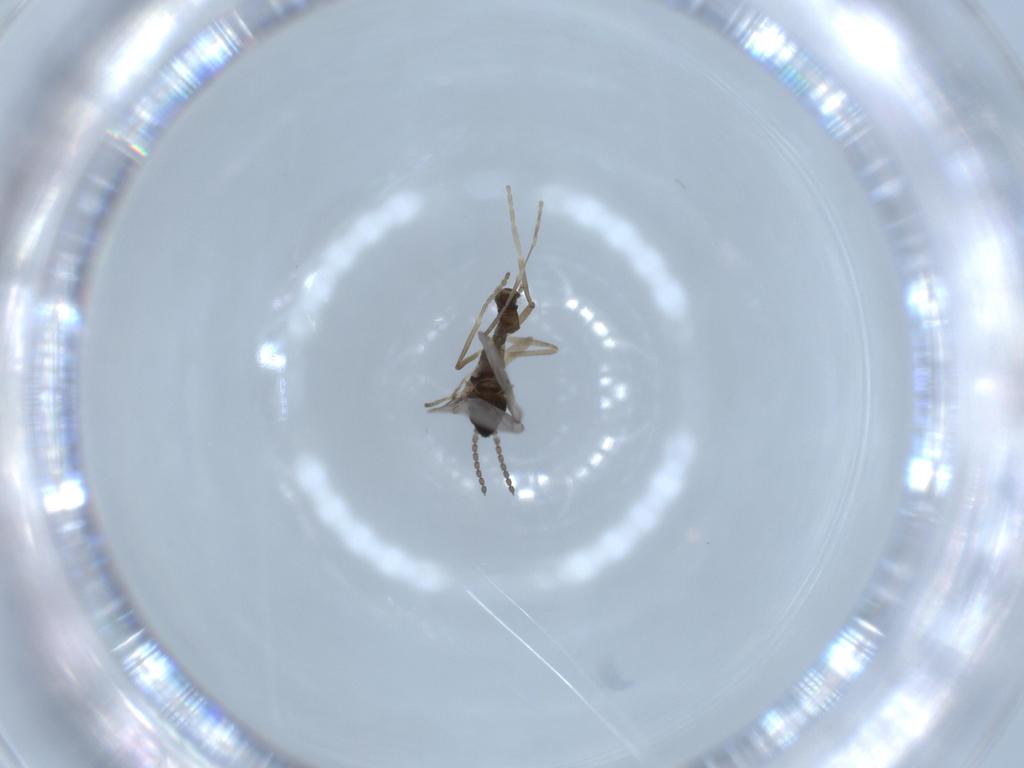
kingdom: Animalia
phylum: Arthropoda
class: Insecta
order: Diptera
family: Cecidomyiidae
